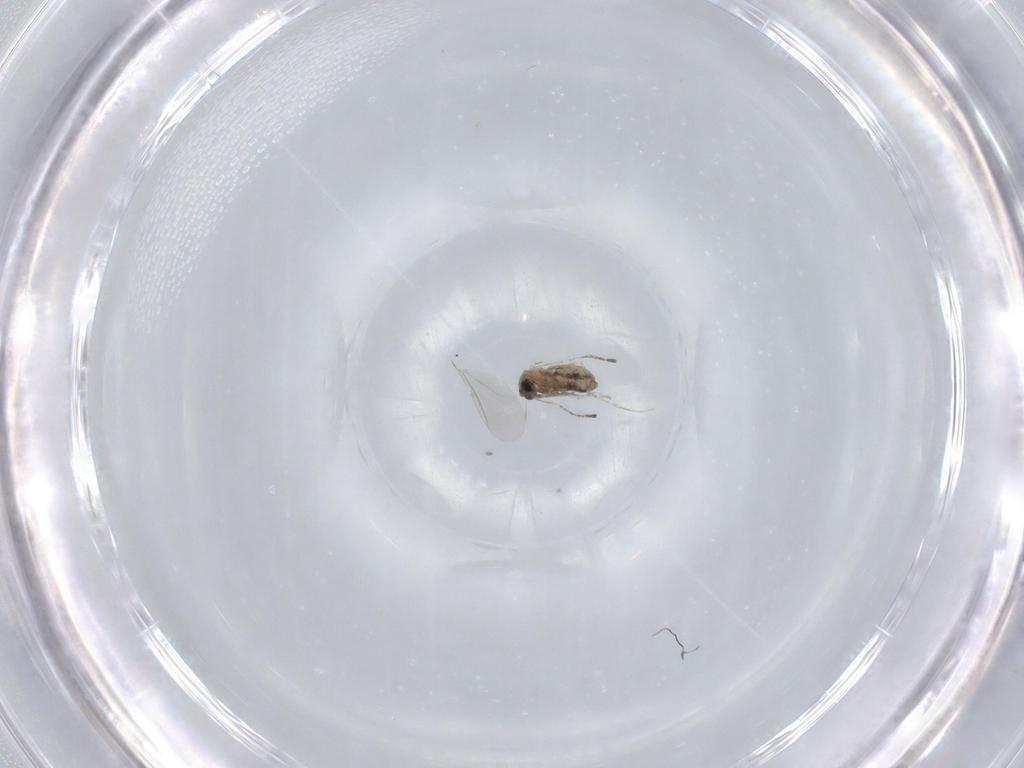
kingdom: Animalia
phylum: Arthropoda
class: Insecta
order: Diptera
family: Cecidomyiidae
